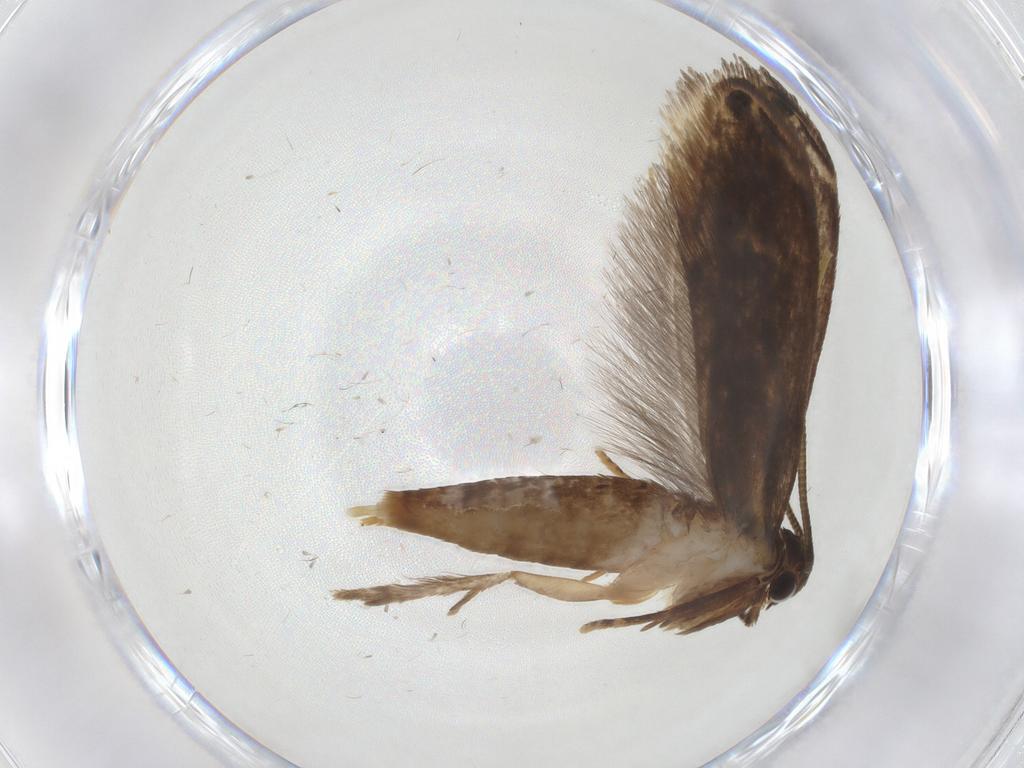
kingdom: Animalia
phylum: Arthropoda
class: Insecta
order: Lepidoptera
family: Tineidae
